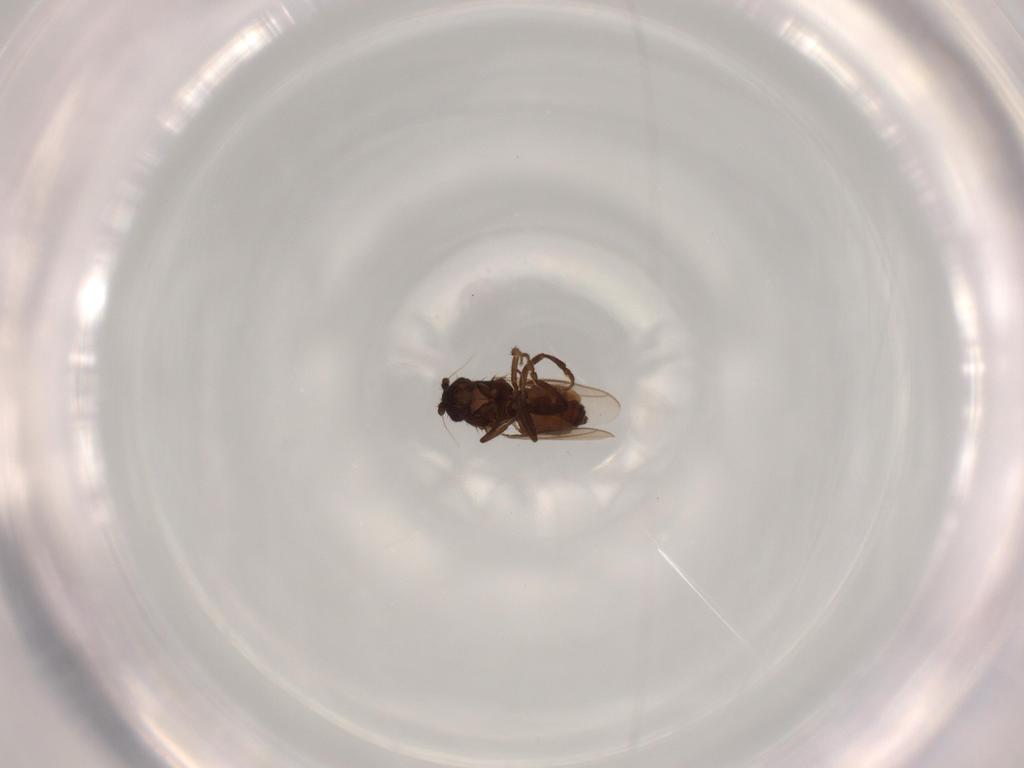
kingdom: Animalia
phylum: Arthropoda
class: Insecta
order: Diptera
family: Sphaeroceridae
